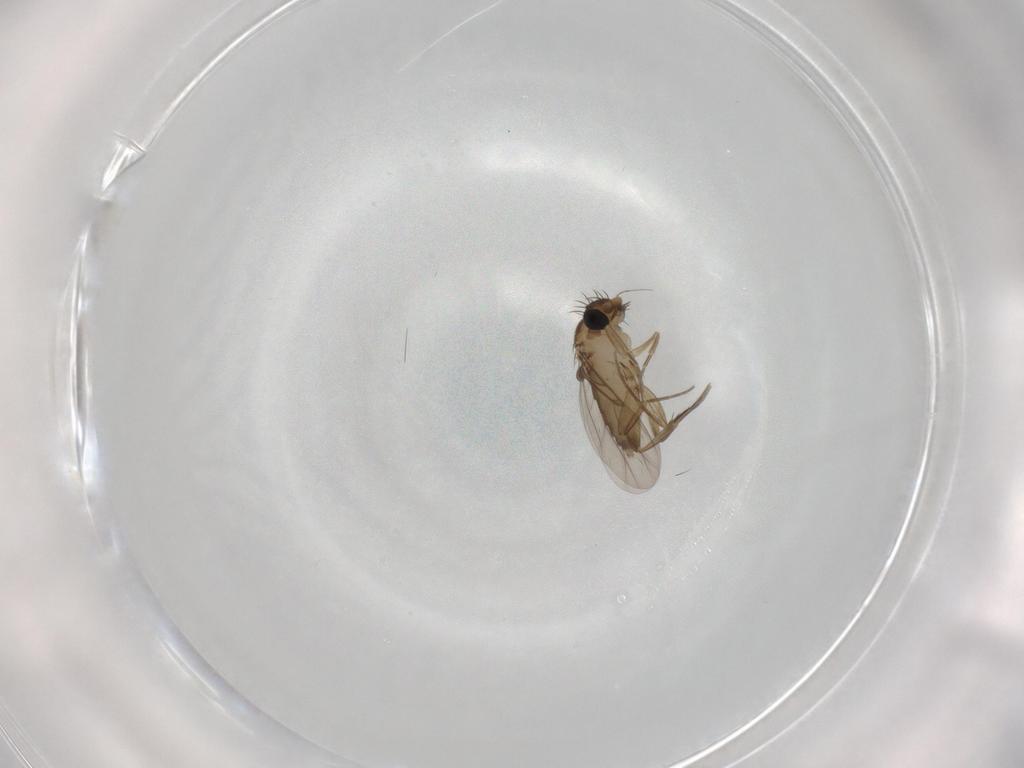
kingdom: Animalia
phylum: Arthropoda
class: Insecta
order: Diptera
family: Phoridae
